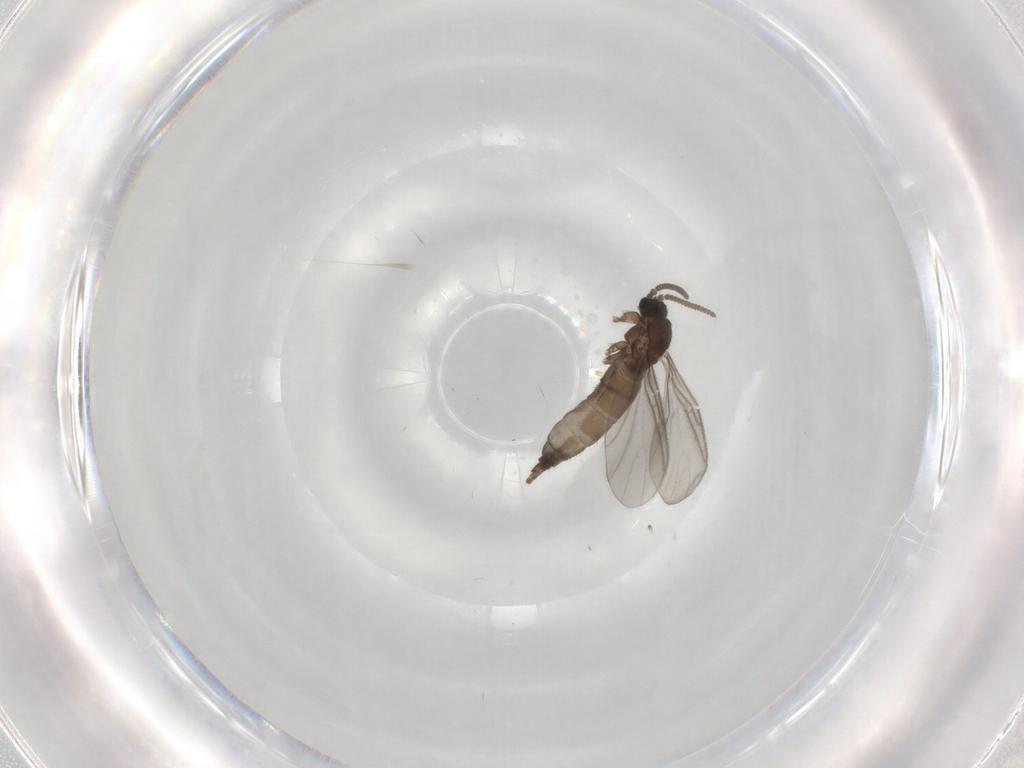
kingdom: Animalia
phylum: Arthropoda
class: Insecta
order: Diptera
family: Sciaridae
